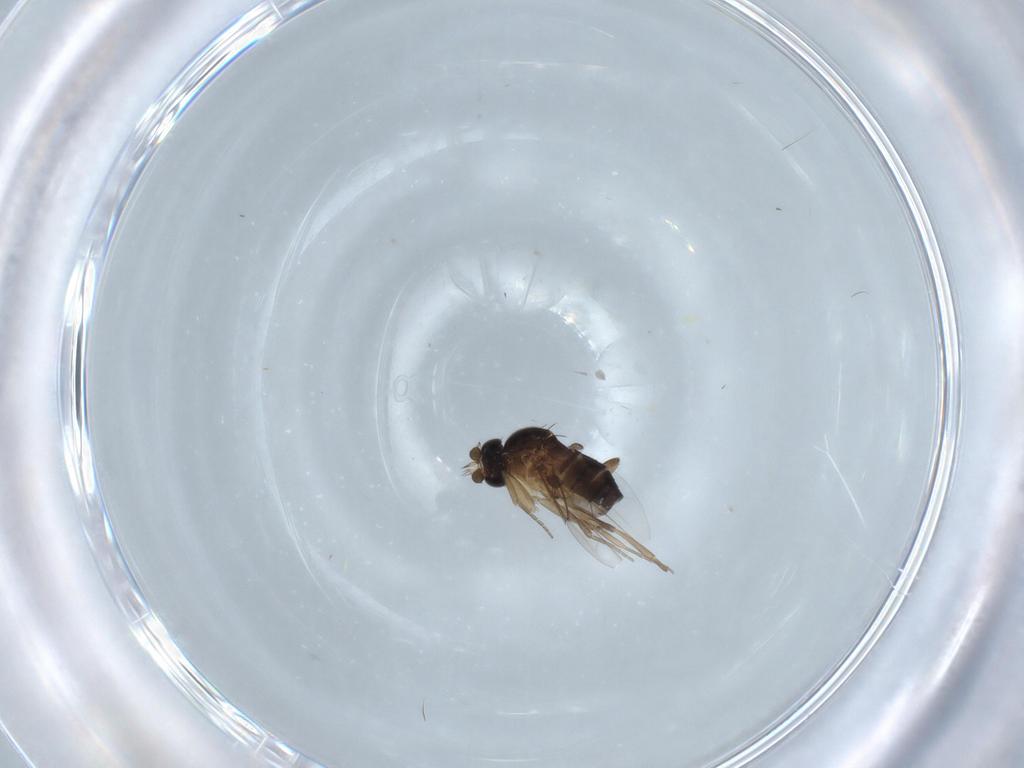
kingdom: Animalia
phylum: Arthropoda
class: Insecta
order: Diptera
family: Phoridae
